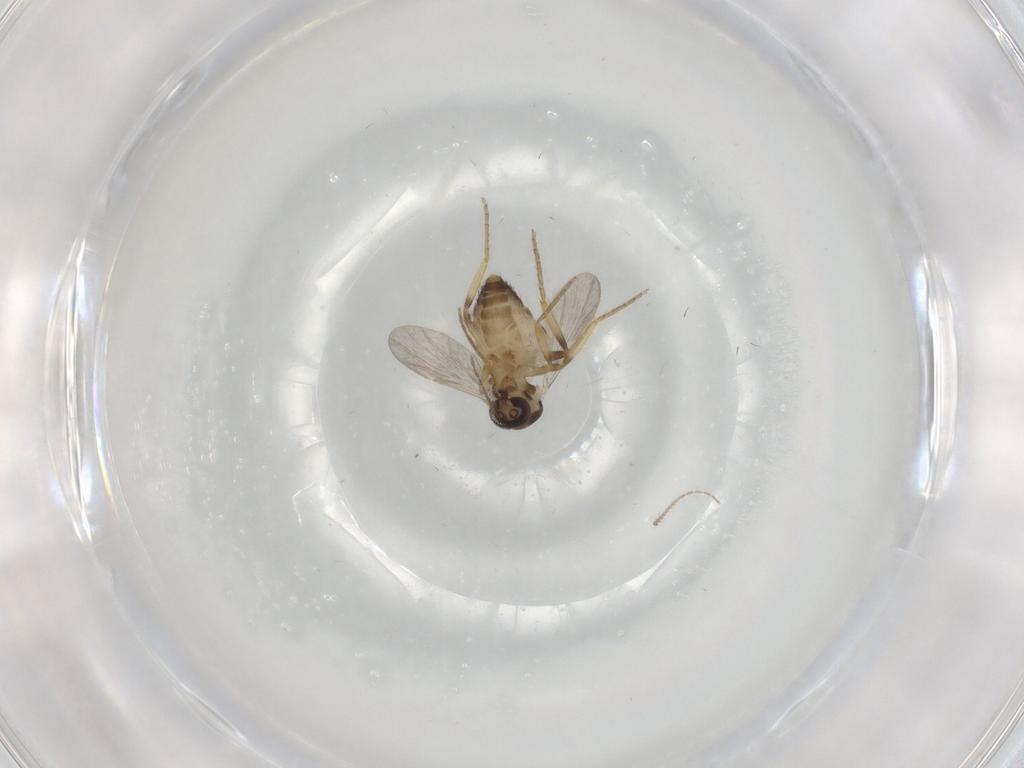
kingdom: Animalia
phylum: Arthropoda
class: Insecta
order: Diptera
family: Ceratopogonidae
